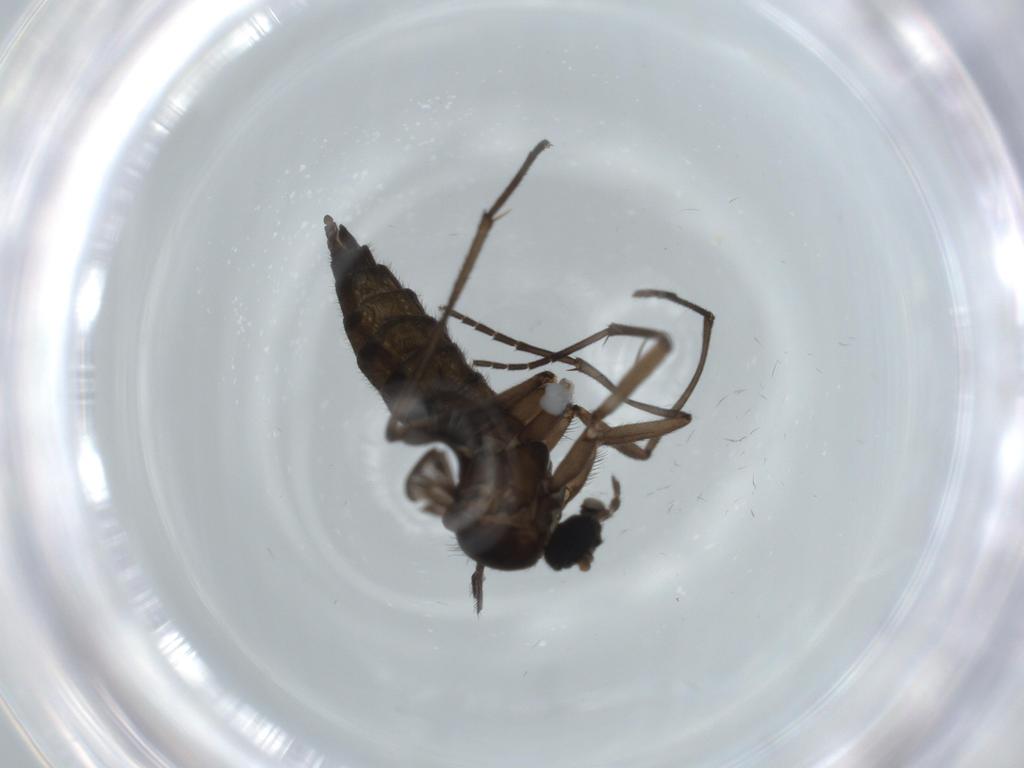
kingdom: Animalia
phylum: Arthropoda
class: Insecta
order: Diptera
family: Sciaridae
